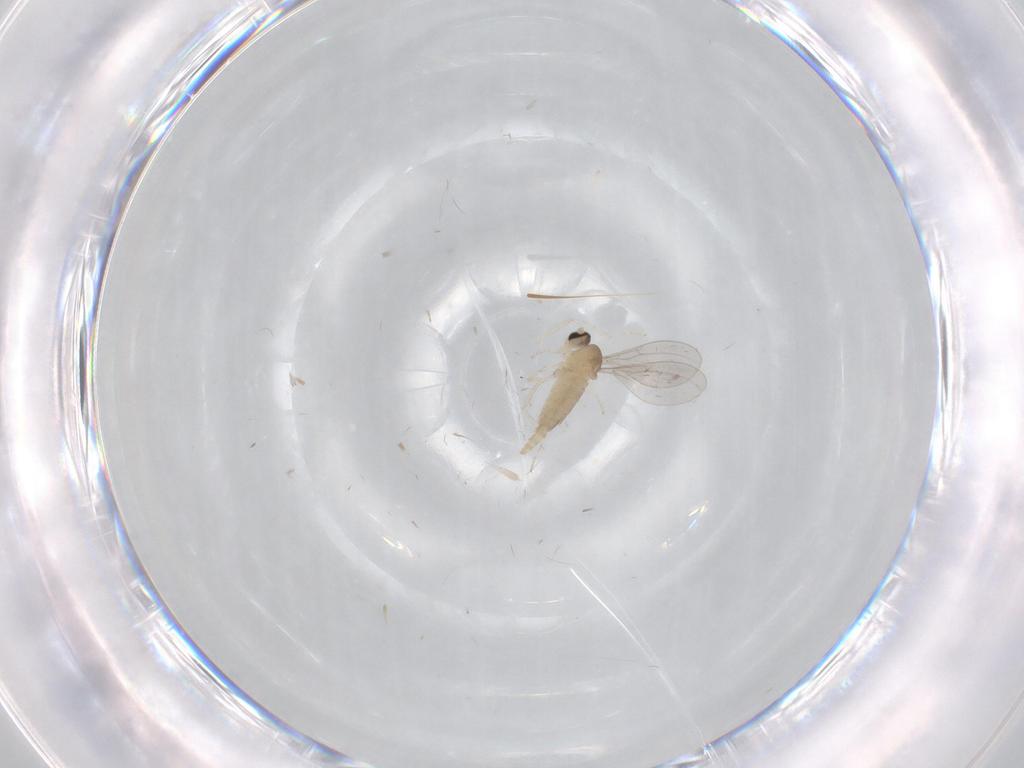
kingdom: Animalia
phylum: Arthropoda
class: Insecta
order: Diptera
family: Cecidomyiidae
